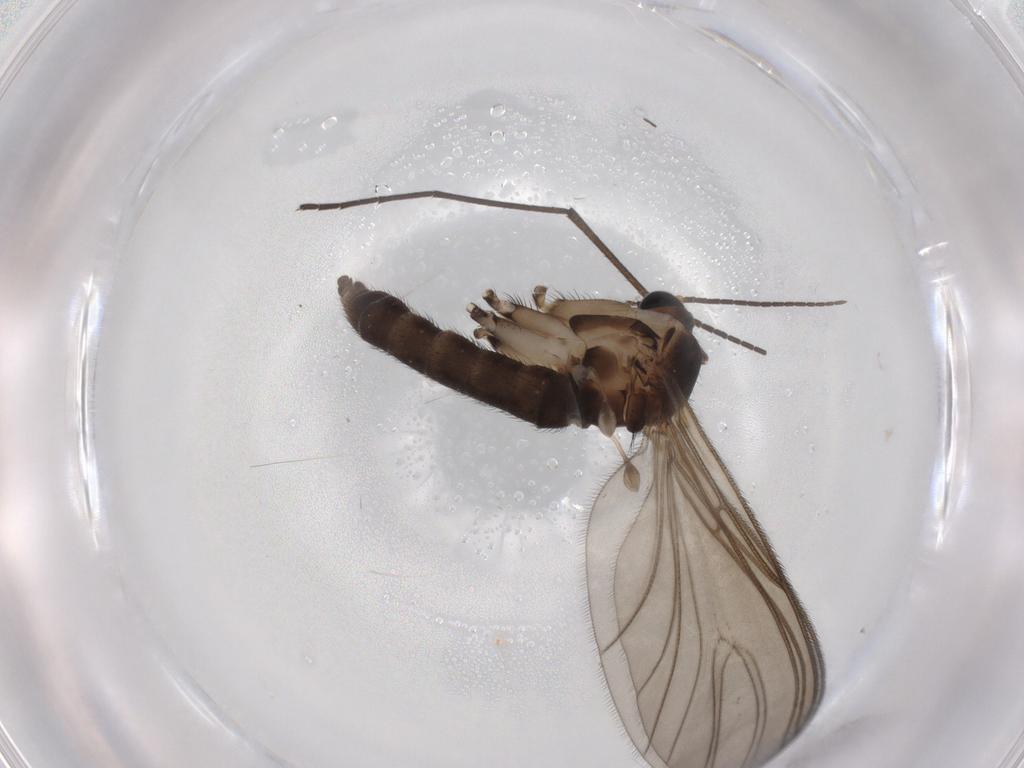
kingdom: Animalia
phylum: Arthropoda
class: Insecta
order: Diptera
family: Sciaridae
